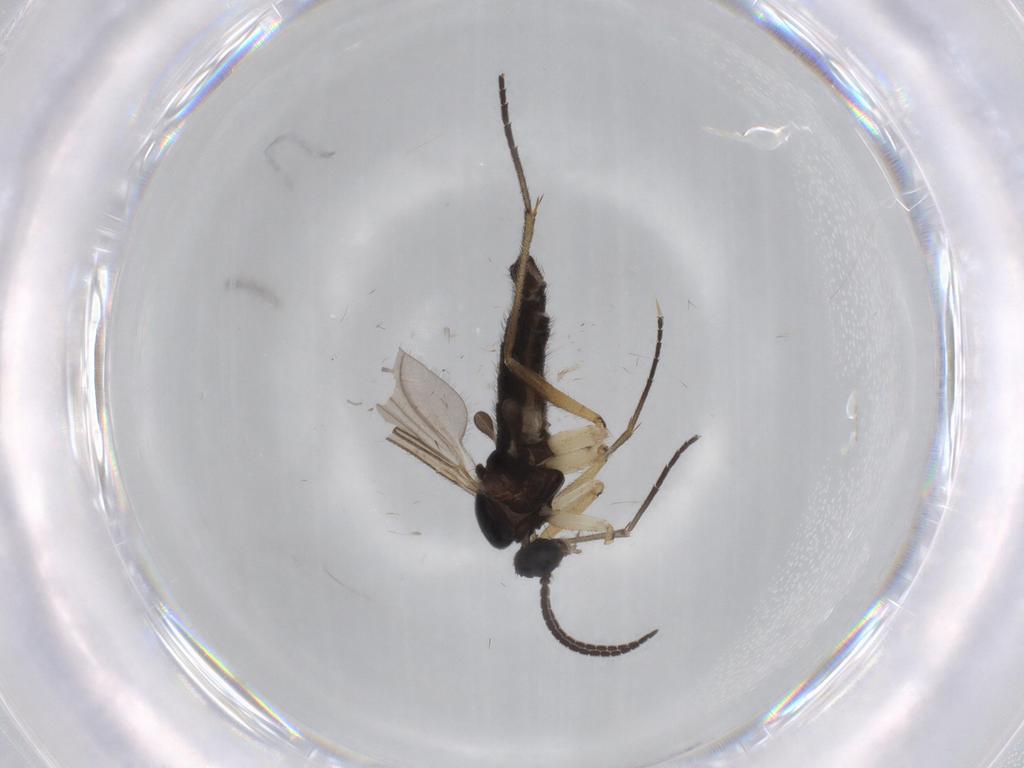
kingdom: Animalia
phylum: Arthropoda
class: Insecta
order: Diptera
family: Sciaridae
